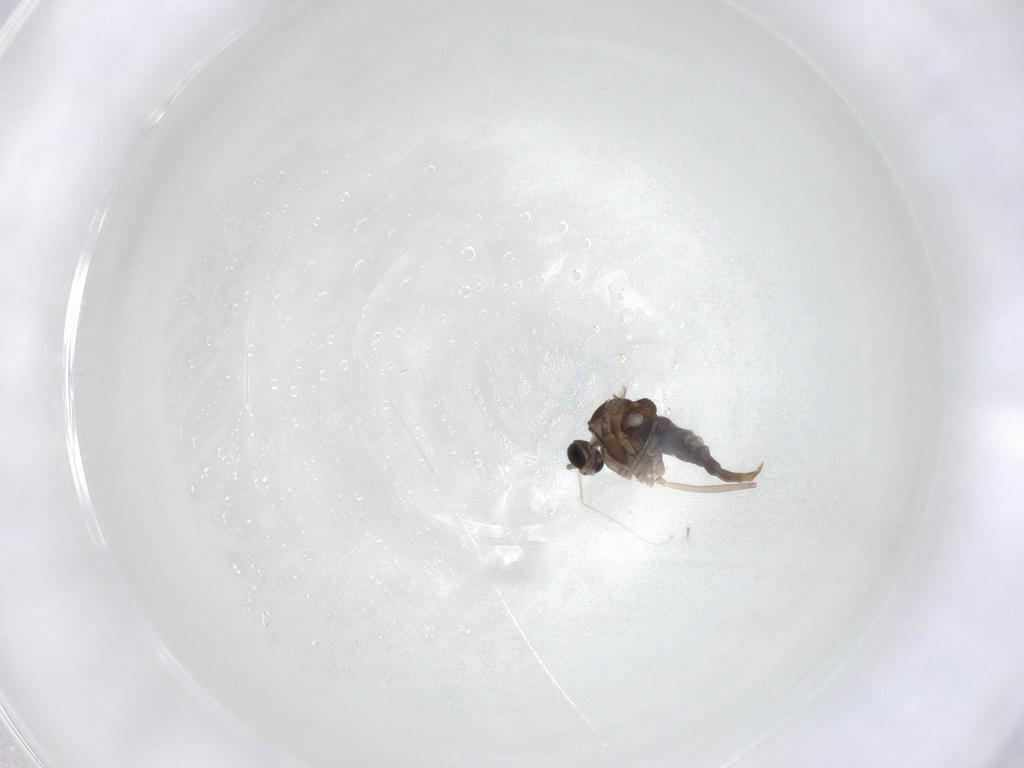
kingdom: Animalia
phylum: Arthropoda
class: Insecta
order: Diptera
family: Cecidomyiidae
